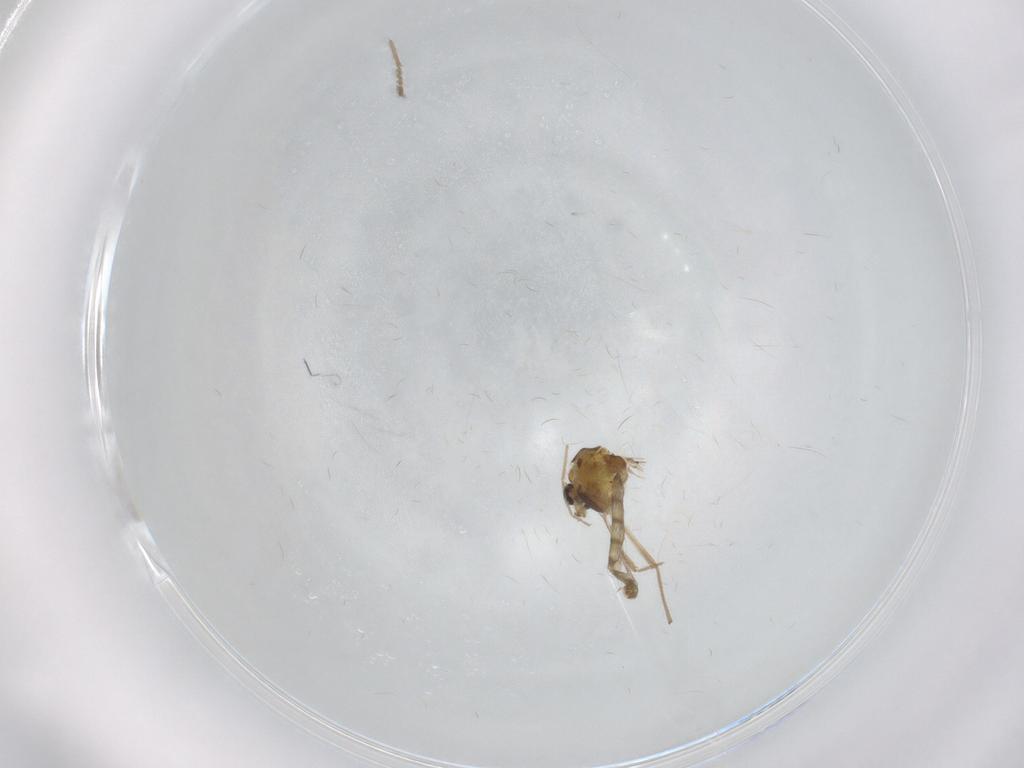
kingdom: Animalia
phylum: Arthropoda
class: Insecta
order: Diptera
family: Chironomidae
